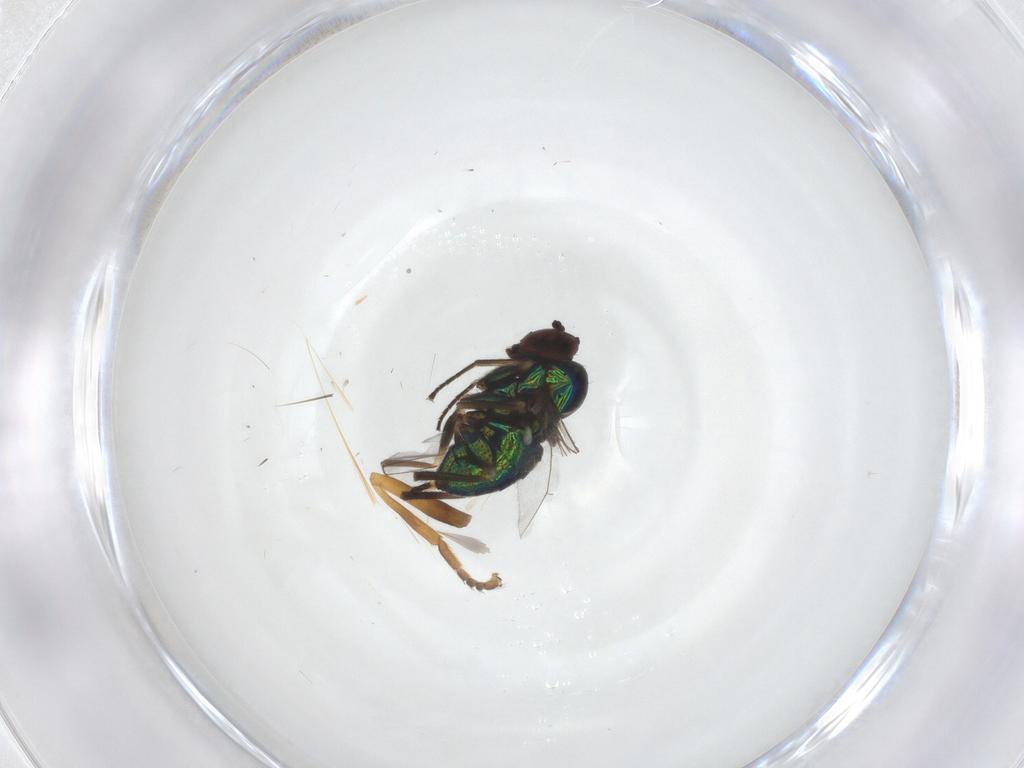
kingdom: Animalia
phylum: Arthropoda
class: Insecta
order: Diptera
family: Dolichopodidae
